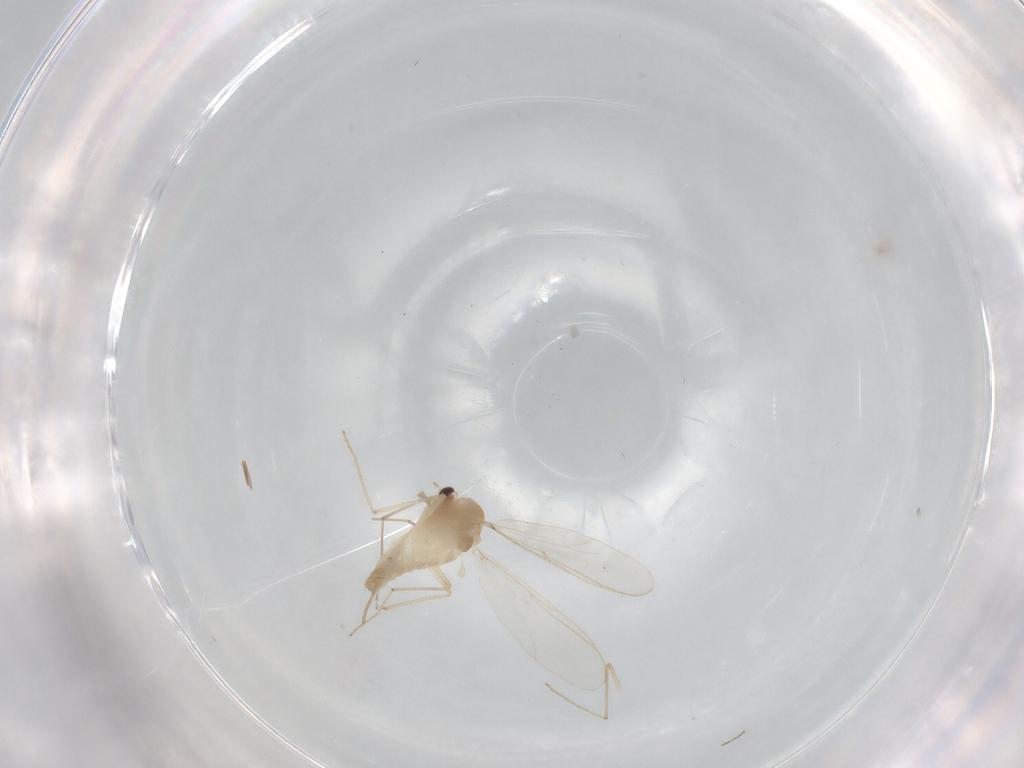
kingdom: Animalia
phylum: Arthropoda
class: Insecta
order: Diptera
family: Chironomidae
